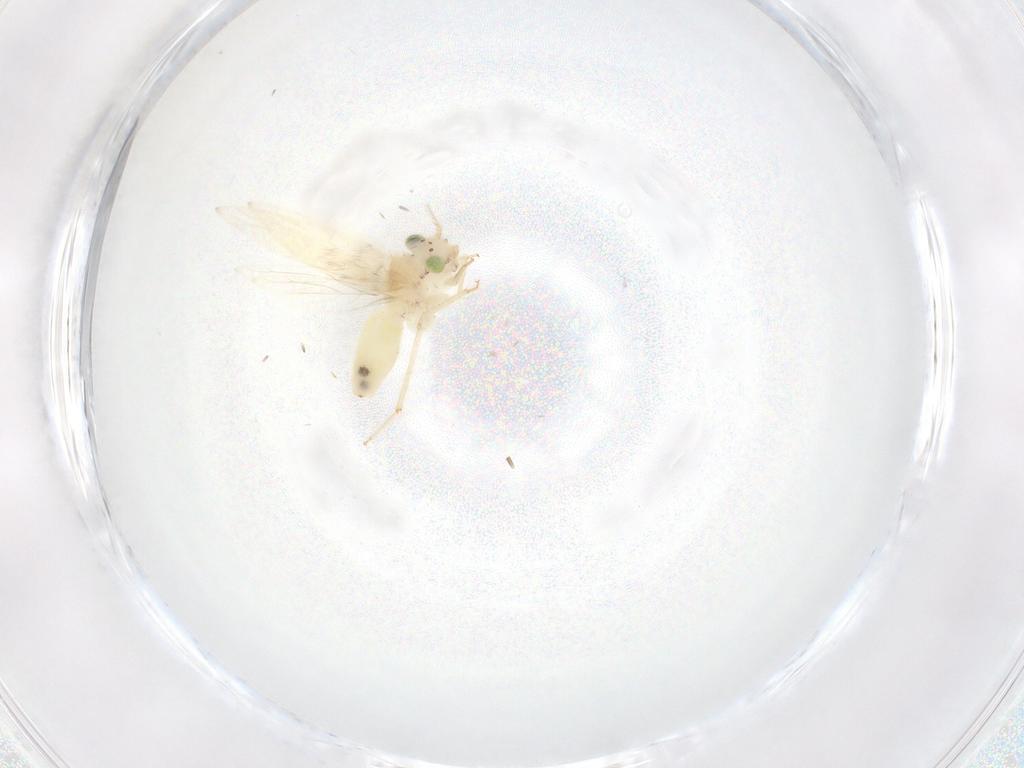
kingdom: Animalia
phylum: Arthropoda
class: Insecta
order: Psocodea
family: Lepidopsocidae
